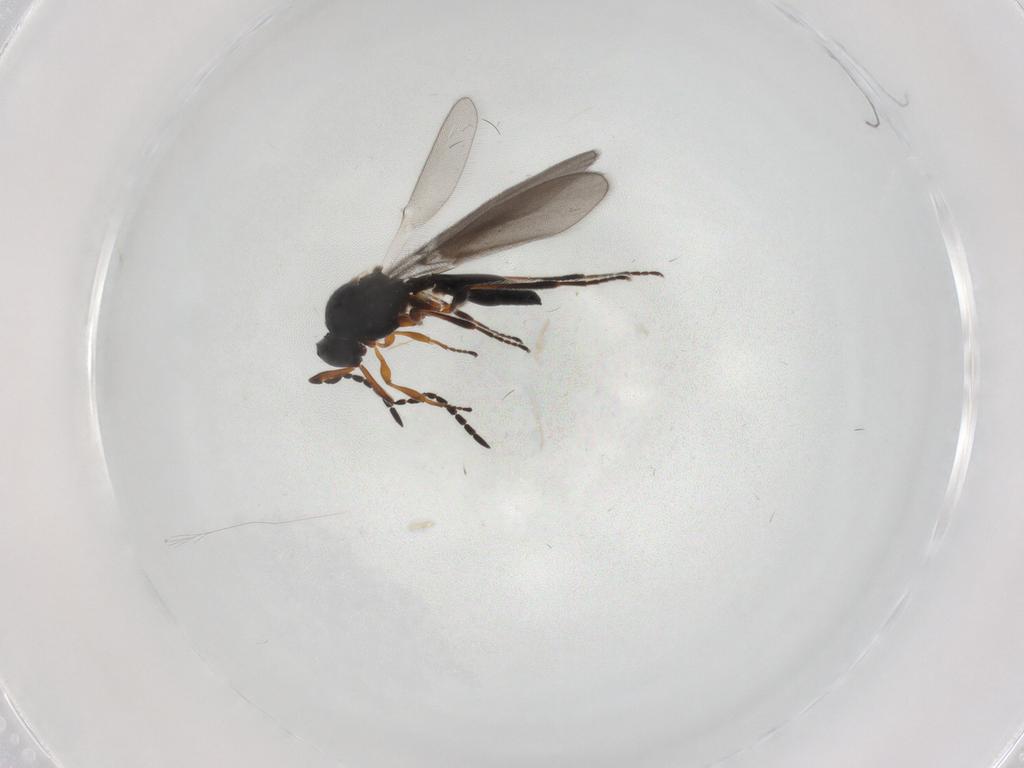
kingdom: Animalia
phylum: Arthropoda
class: Insecta
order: Hymenoptera
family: Platygastridae
